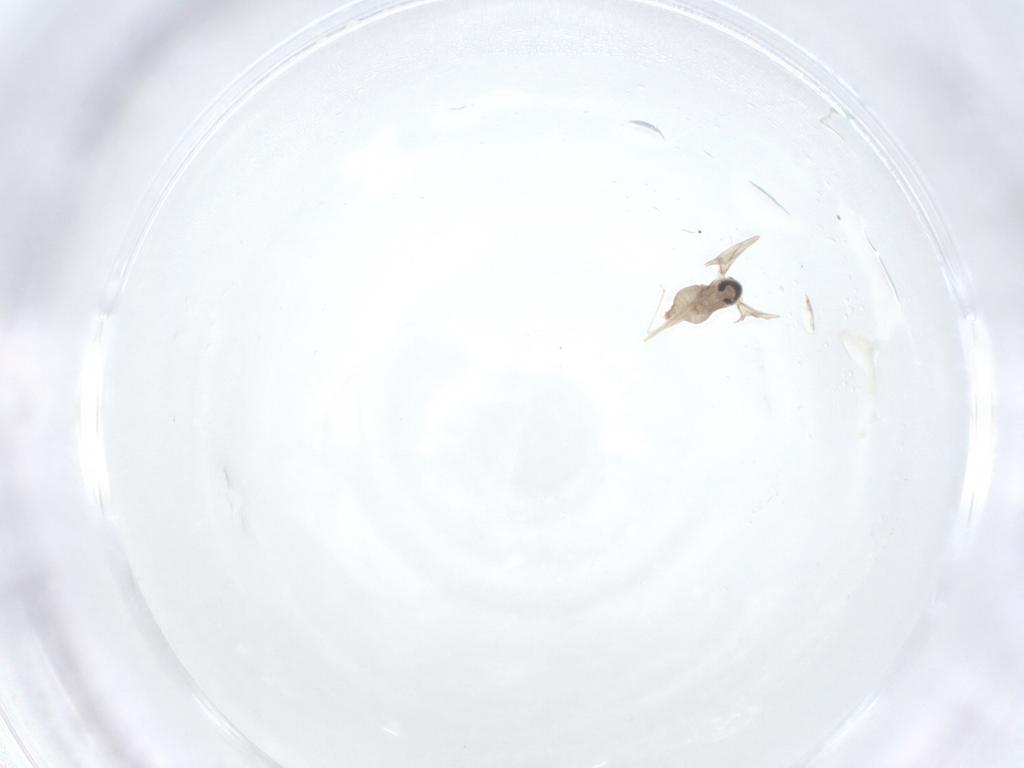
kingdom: Animalia
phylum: Arthropoda
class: Insecta
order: Diptera
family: Cecidomyiidae
